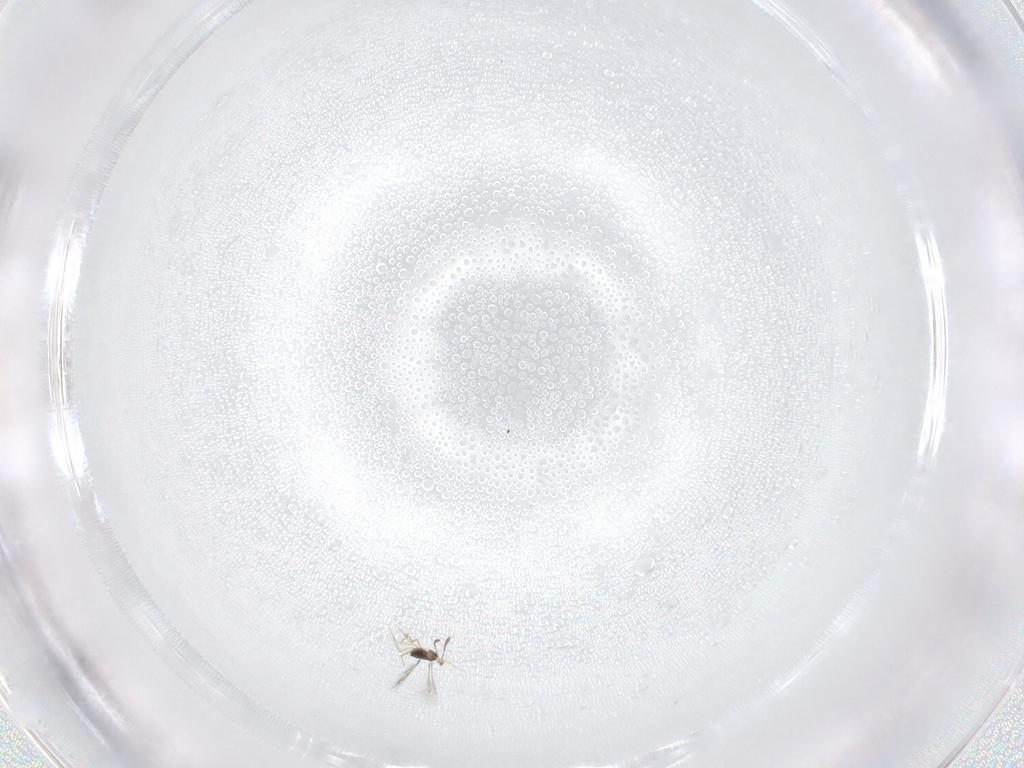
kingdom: Animalia
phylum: Arthropoda
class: Insecta
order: Hymenoptera
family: Mymaridae
